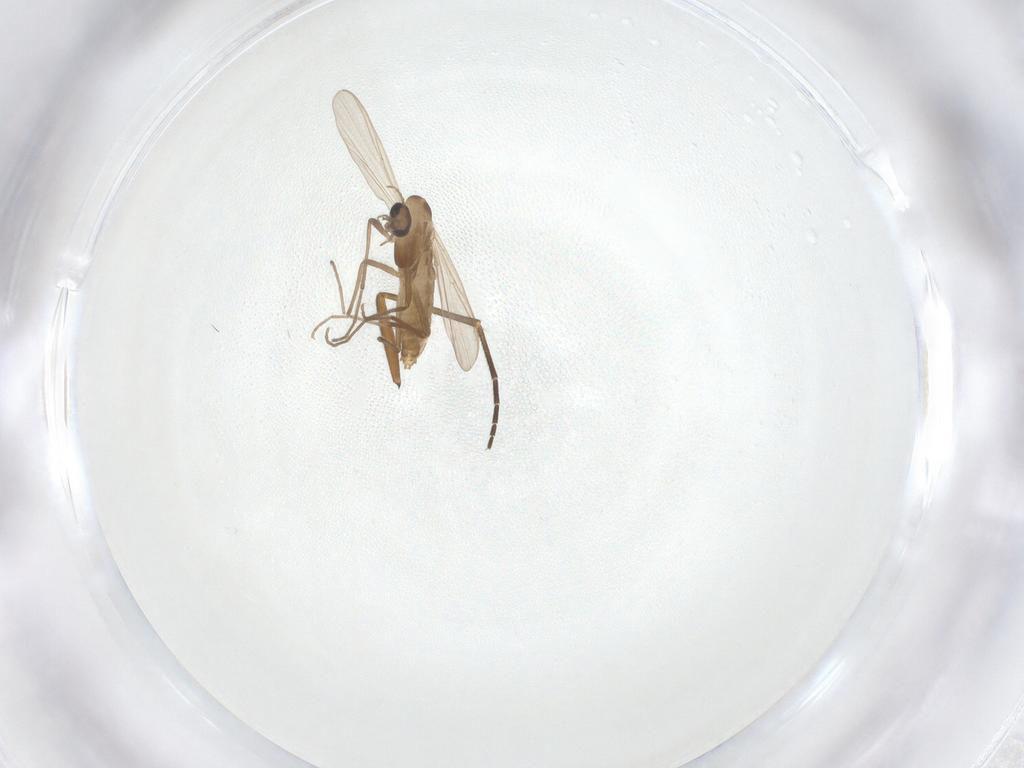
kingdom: Animalia
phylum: Arthropoda
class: Insecta
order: Diptera
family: Chironomidae
